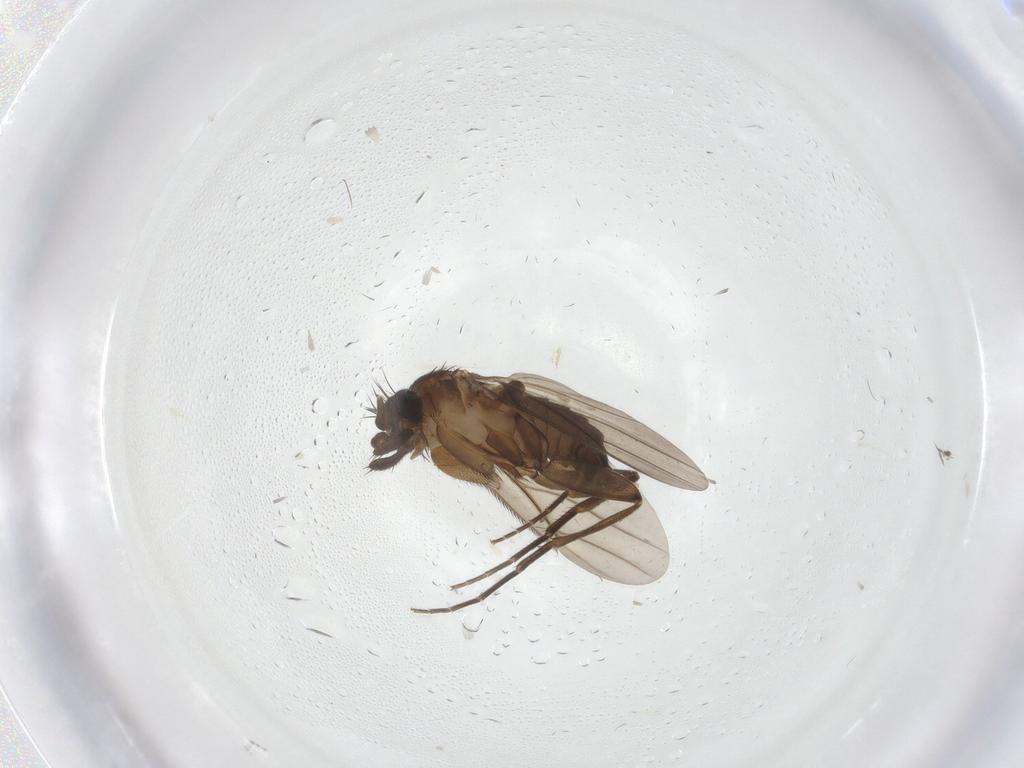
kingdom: Animalia
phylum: Arthropoda
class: Insecta
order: Diptera
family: Phoridae
